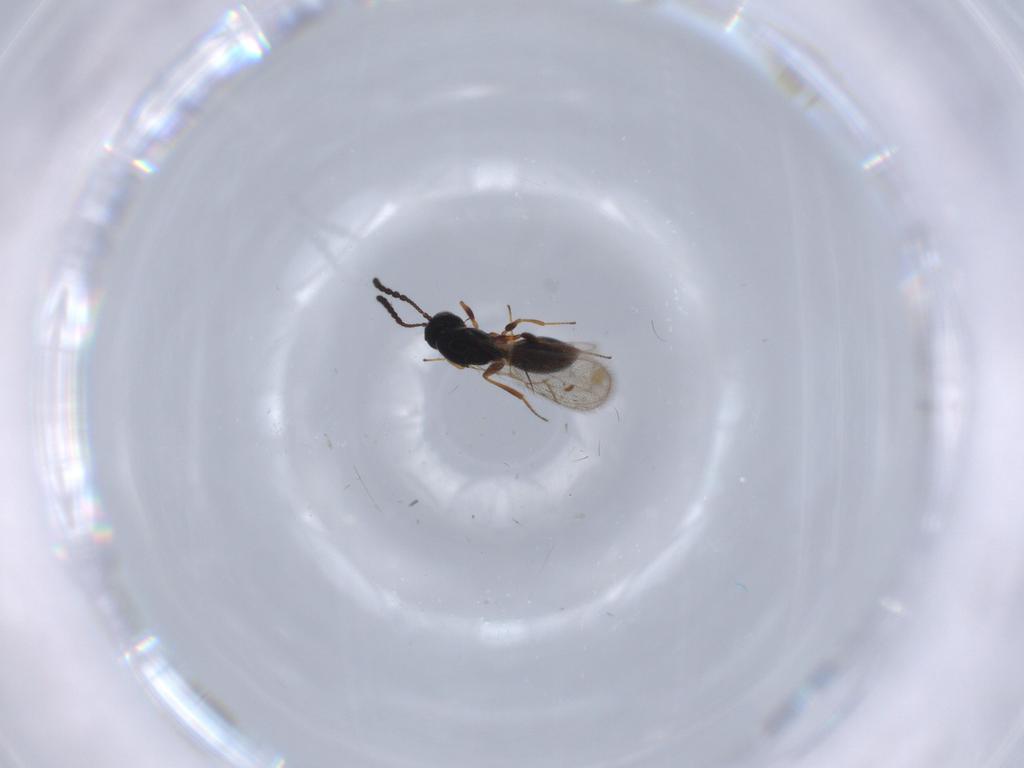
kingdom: Animalia
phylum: Arthropoda
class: Insecta
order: Hymenoptera
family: Figitidae
